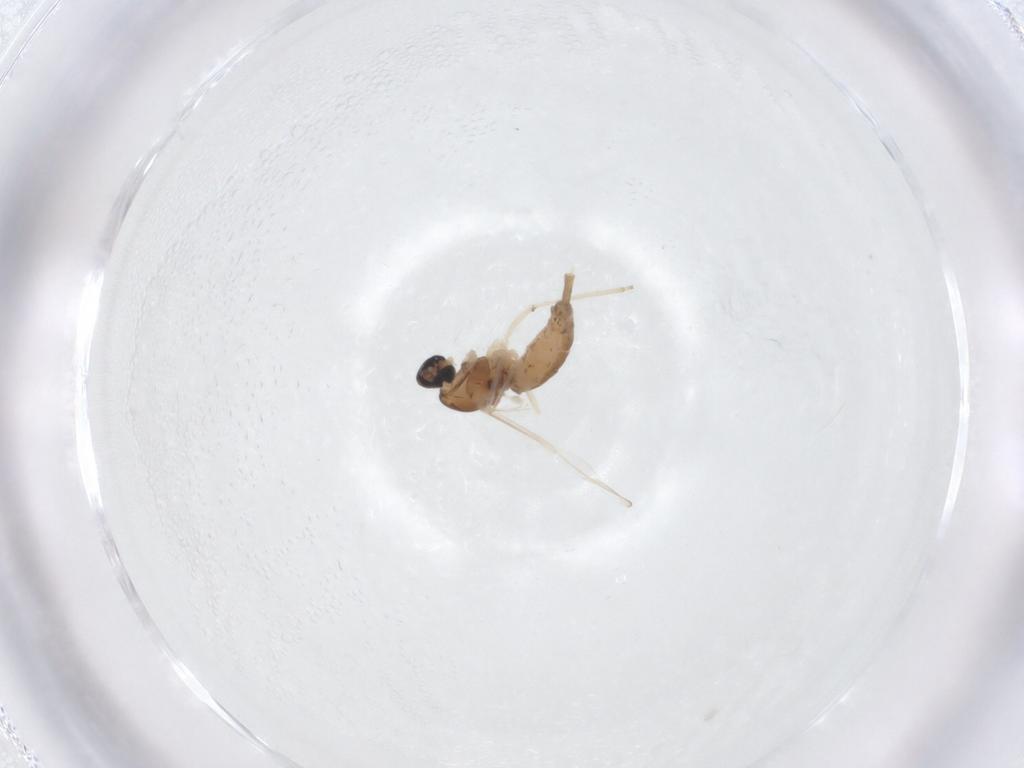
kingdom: Animalia
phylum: Arthropoda
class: Insecta
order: Diptera
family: Cecidomyiidae
